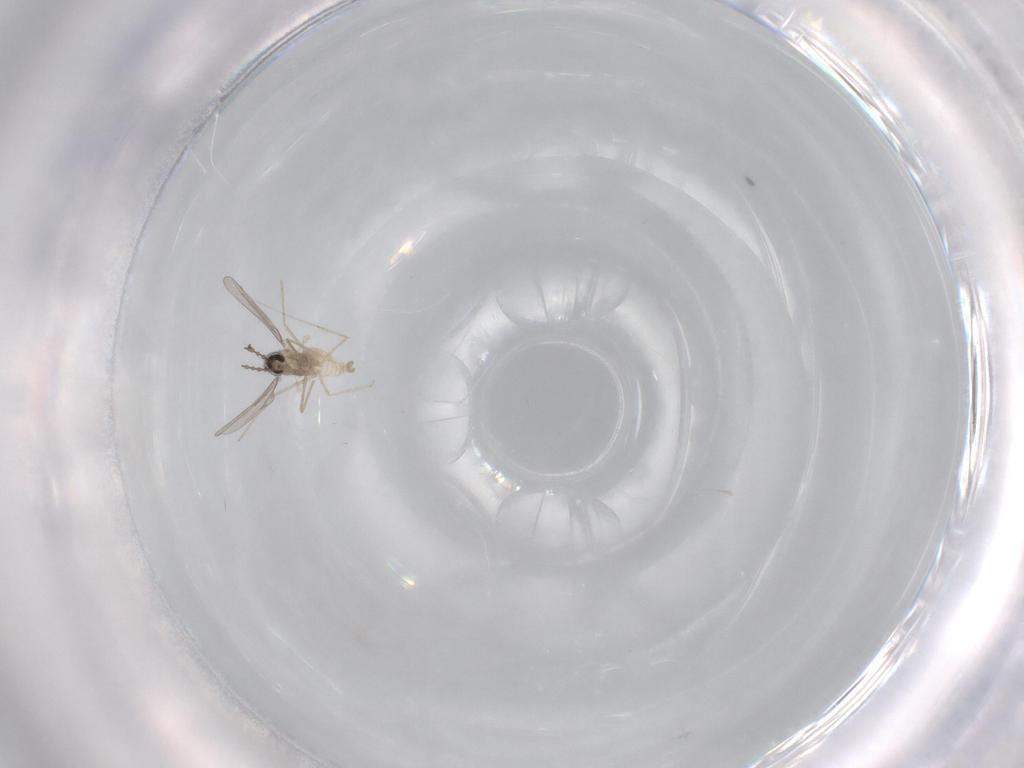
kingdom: Animalia
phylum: Arthropoda
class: Insecta
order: Diptera
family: Cecidomyiidae
